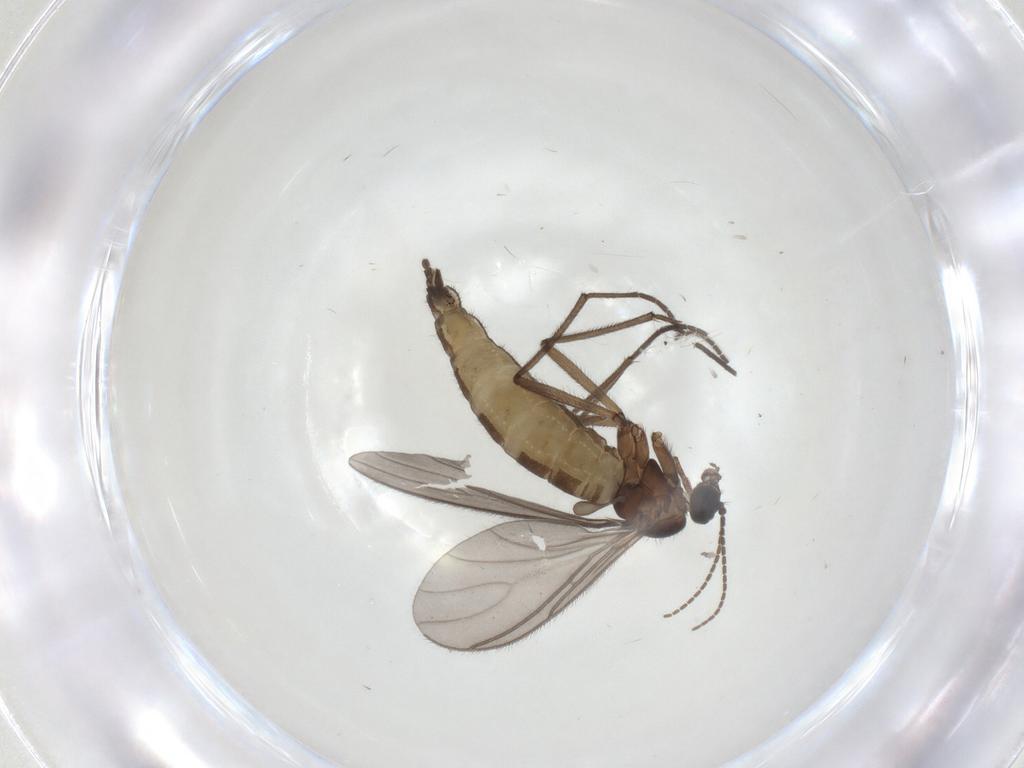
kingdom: Animalia
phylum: Arthropoda
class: Insecta
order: Diptera
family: Sciaridae
